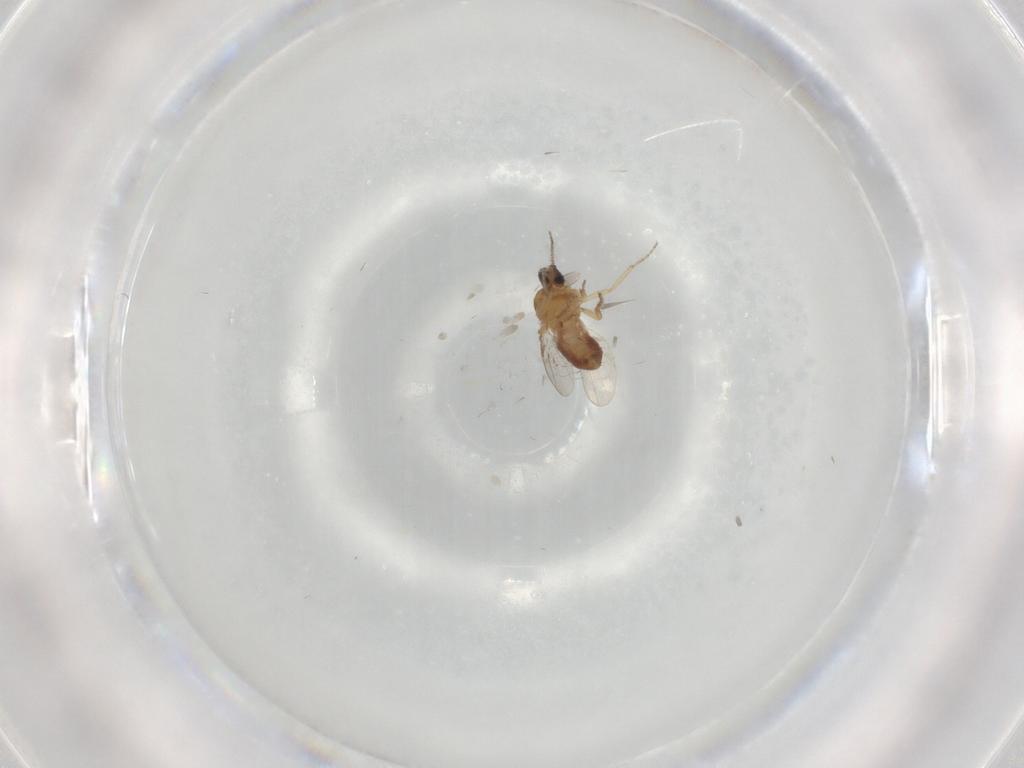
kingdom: Animalia
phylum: Arthropoda
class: Insecta
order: Diptera
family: Ceratopogonidae
